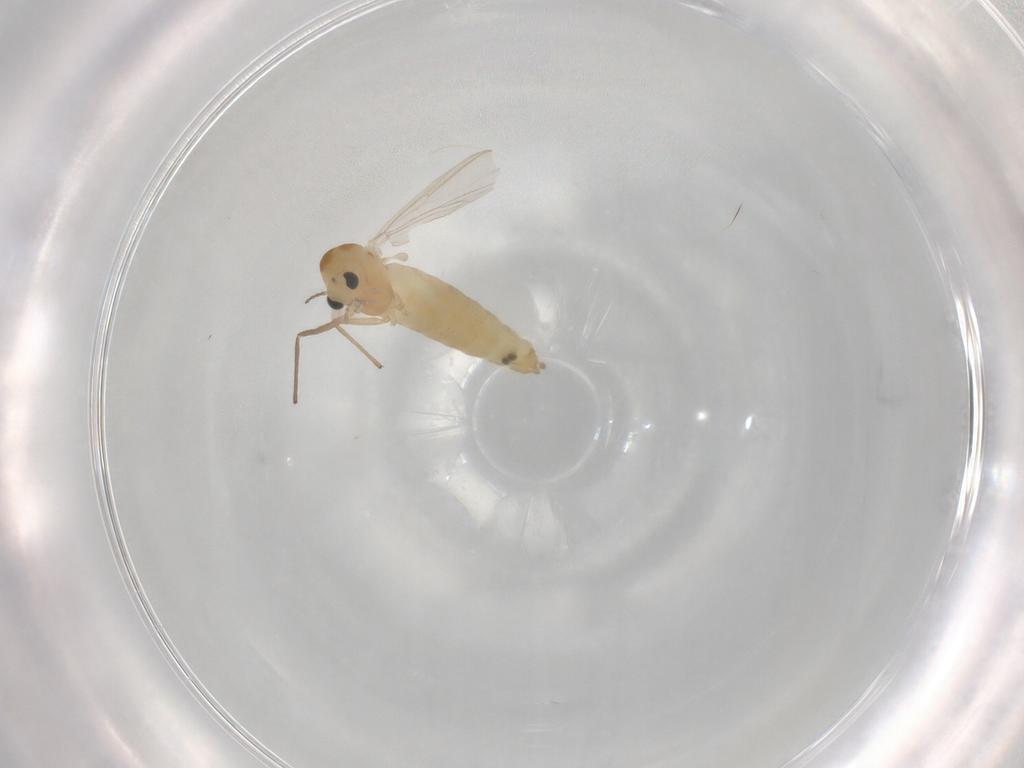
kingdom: Animalia
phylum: Arthropoda
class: Insecta
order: Diptera
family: Chironomidae
